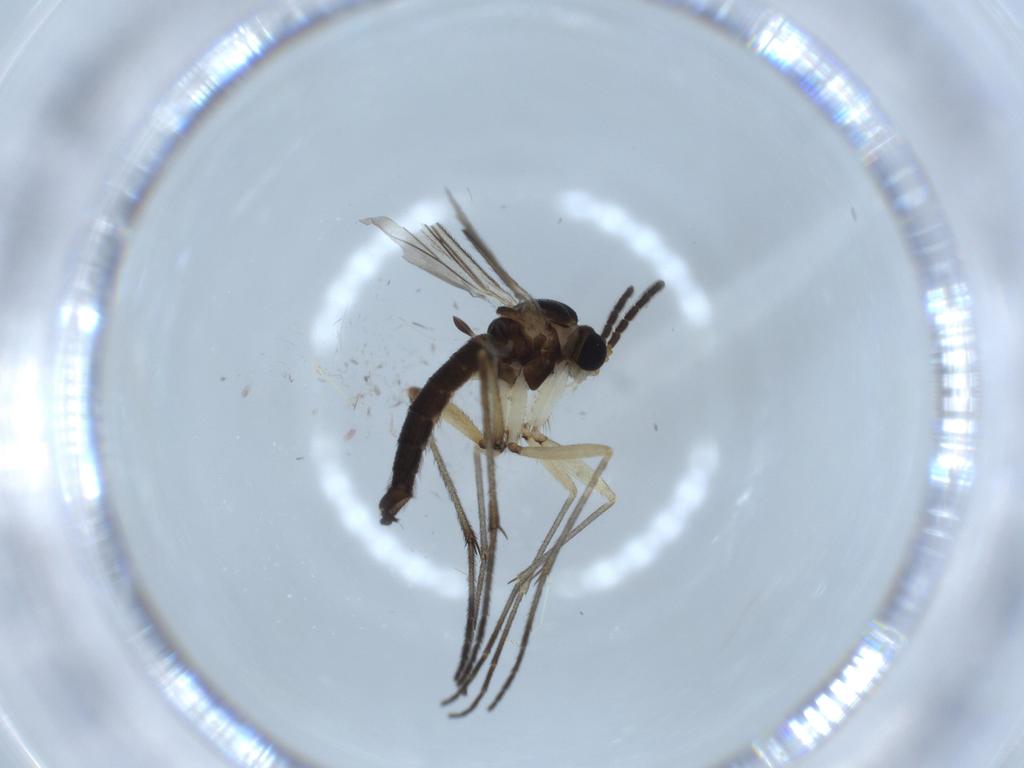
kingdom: Animalia
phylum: Arthropoda
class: Insecta
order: Diptera
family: Sciaridae
